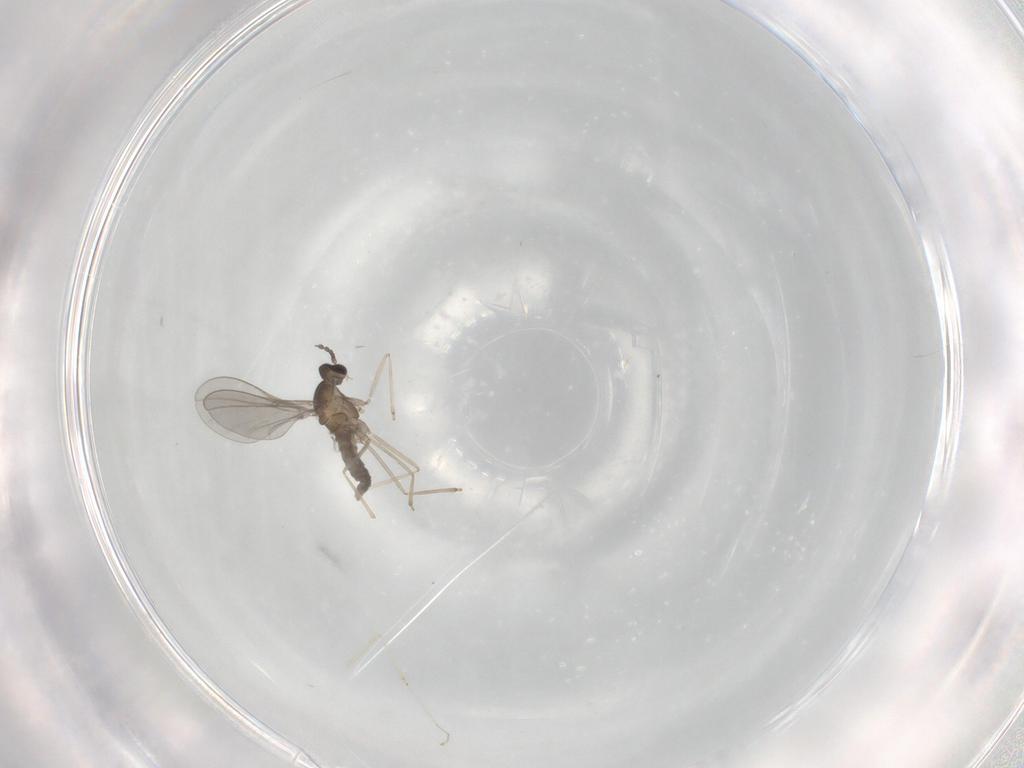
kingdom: Animalia
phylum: Arthropoda
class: Insecta
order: Diptera
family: Cecidomyiidae
